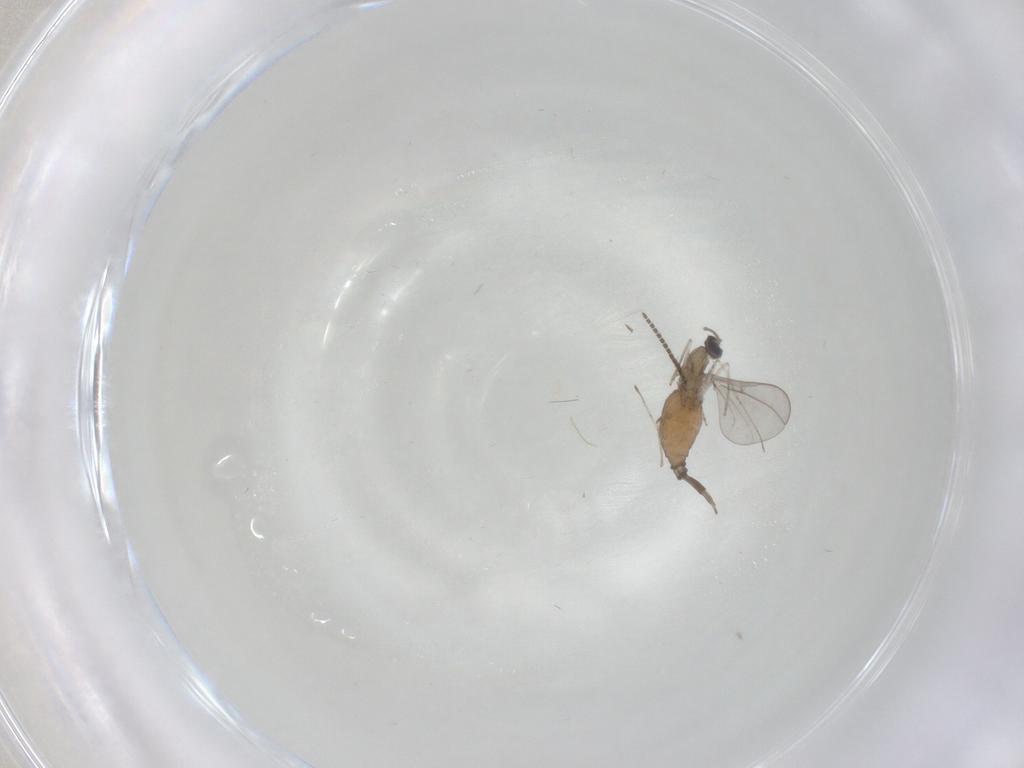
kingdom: Animalia
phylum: Arthropoda
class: Insecta
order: Diptera
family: Cecidomyiidae
